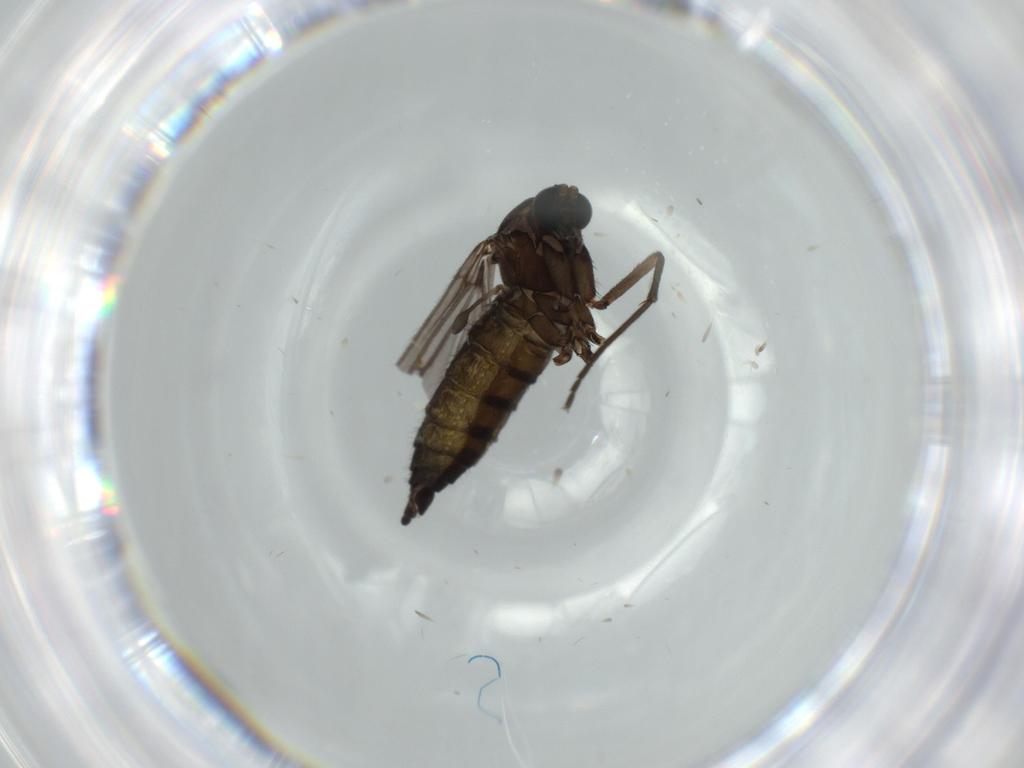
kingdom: Animalia
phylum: Arthropoda
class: Insecta
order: Diptera
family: Sciaridae
